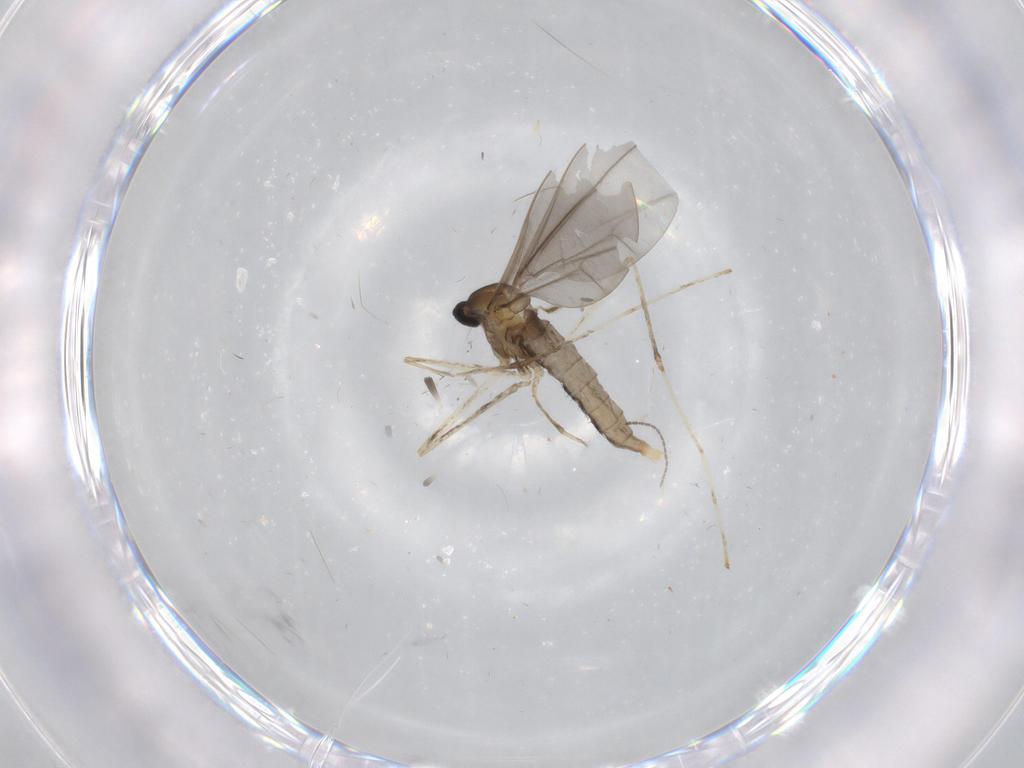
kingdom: Animalia
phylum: Arthropoda
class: Insecta
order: Diptera
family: Cecidomyiidae
